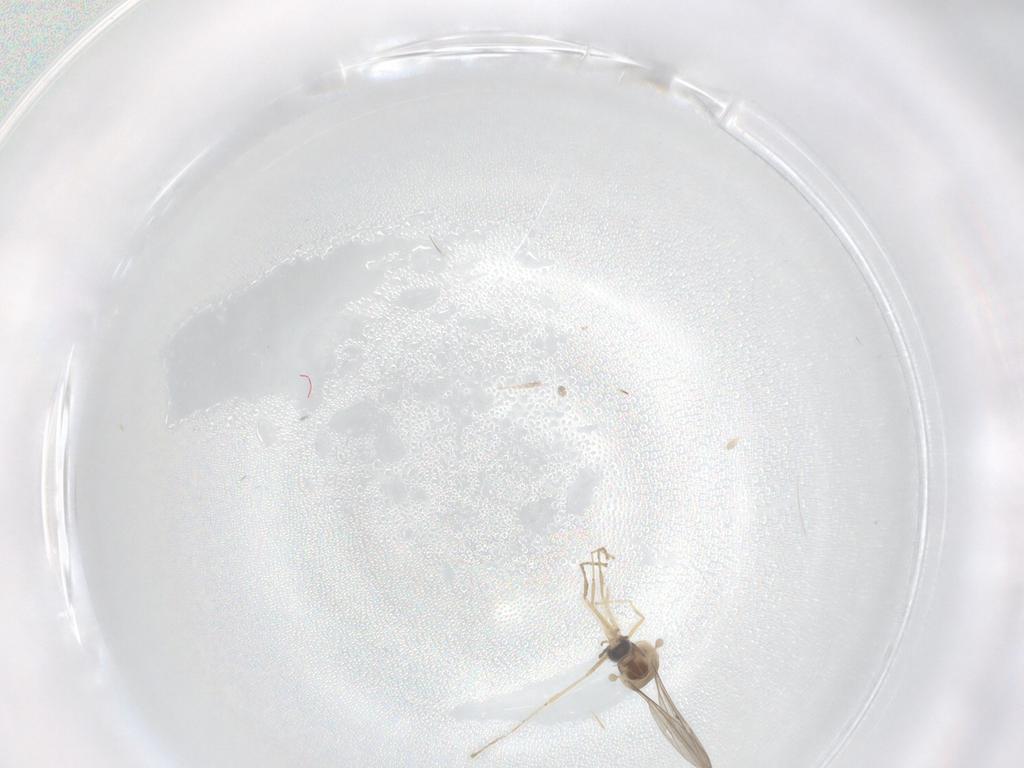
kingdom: Animalia
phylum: Arthropoda
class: Insecta
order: Diptera
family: Cecidomyiidae
